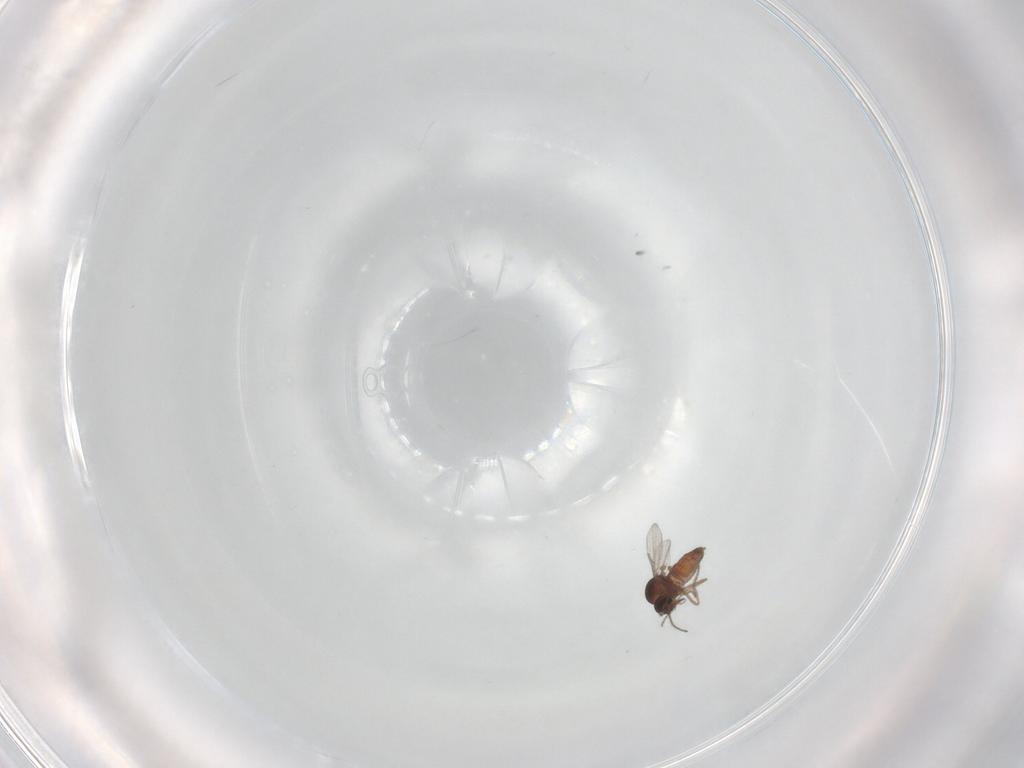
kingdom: Animalia
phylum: Arthropoda
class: Insecta
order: Diptera
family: Ceratopogonidae
